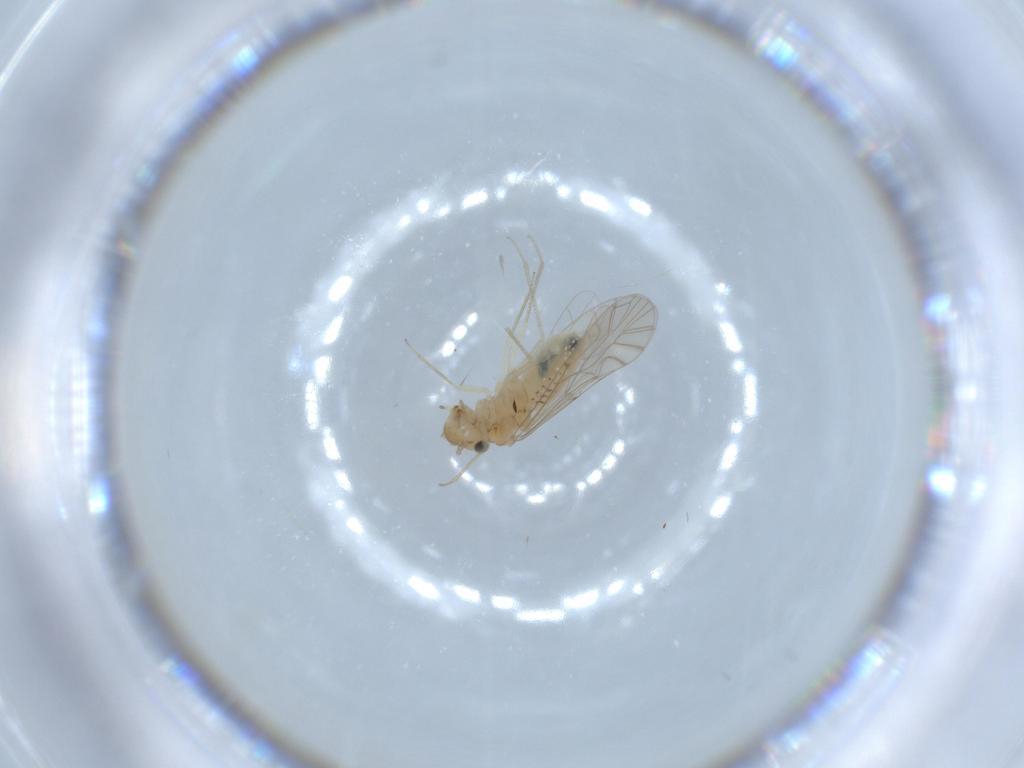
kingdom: Animalia
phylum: Arthropoda
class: Insecta
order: Psocodea
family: Lachesillidae
